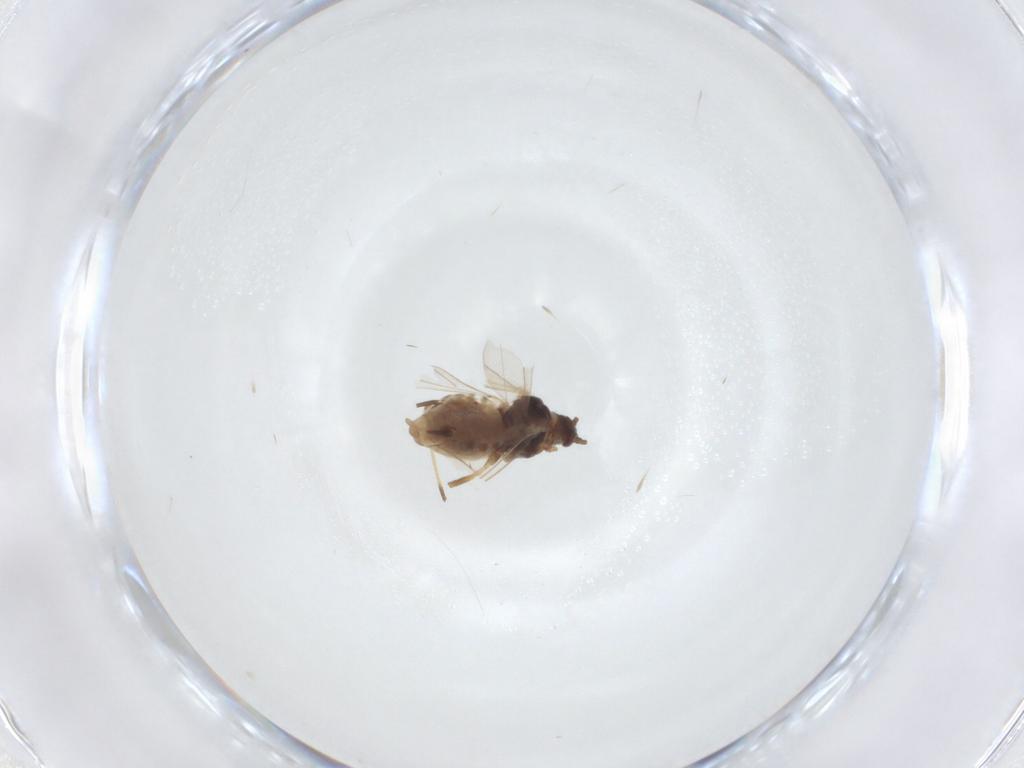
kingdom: Animalia
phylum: Arthropoda
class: Insecta
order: Hemiptera
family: Aphididae
